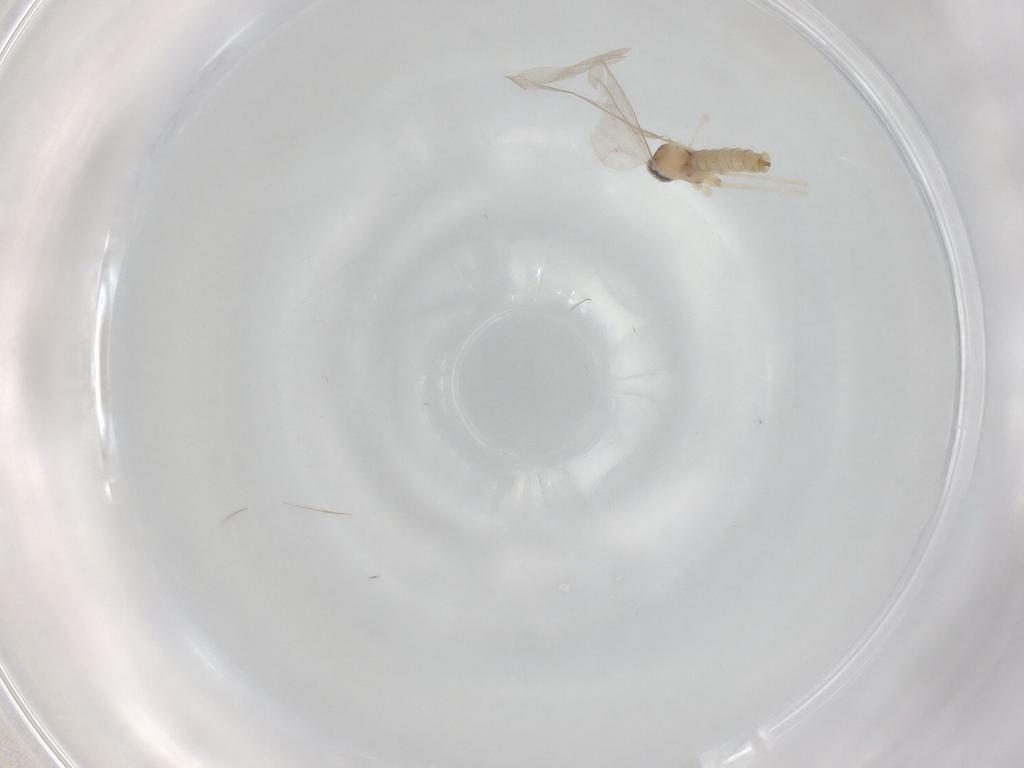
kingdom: Animalia
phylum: Arthropoda
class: Insecta
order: Diptera
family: Cecidomyiidae
